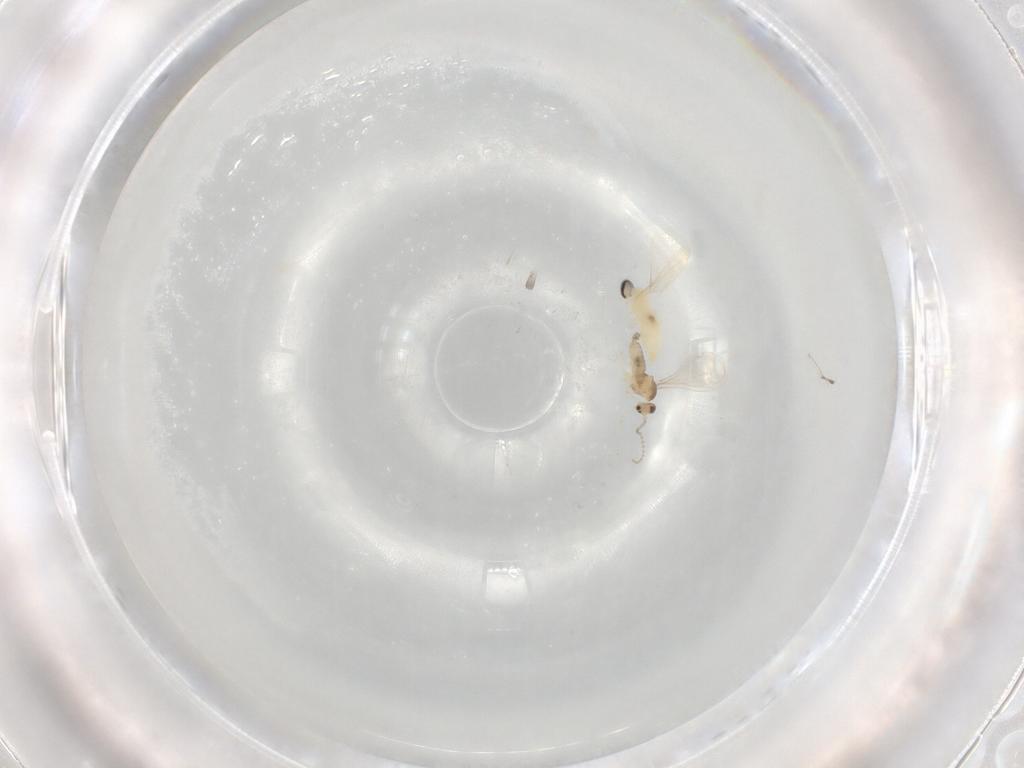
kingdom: Animalia
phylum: Arthropoda
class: Insecta
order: Diptera
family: Cecidomyiidae
